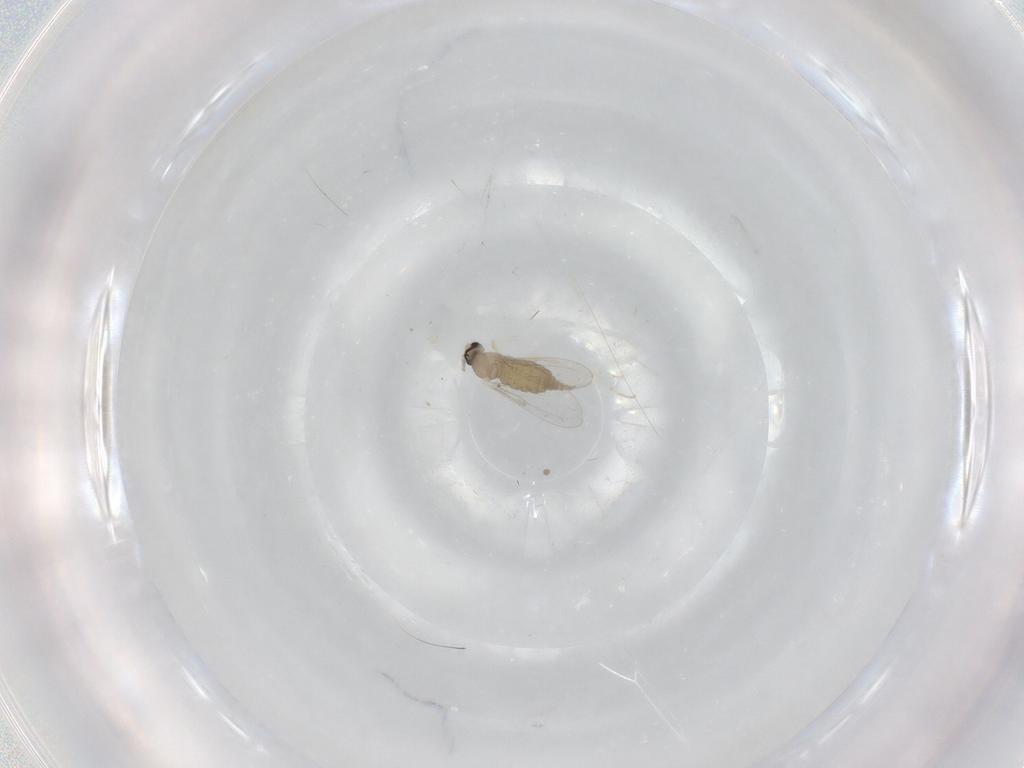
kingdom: Animalia
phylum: Arthropoda
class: Insecta
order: Diptera
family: Cecidomyiidae
